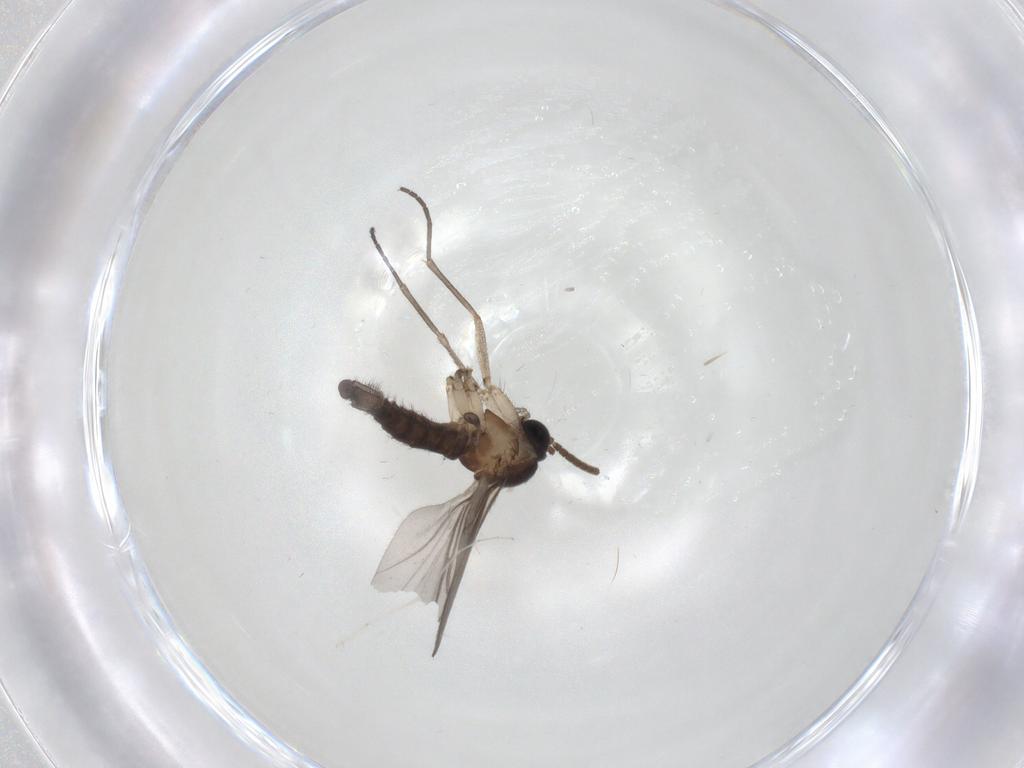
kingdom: Animalia
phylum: Arthropoda
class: Insecta
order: Diptera
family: Cecidomyiidae
